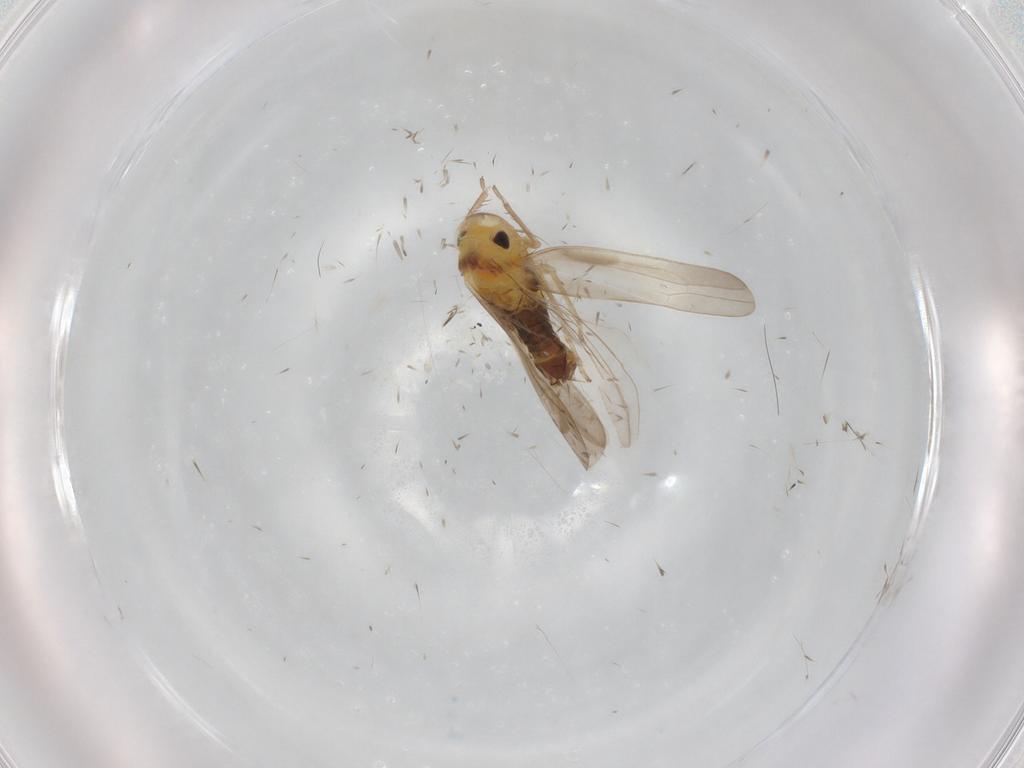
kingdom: Animalia
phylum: Arthropoda
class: Insecta
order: Hemiptera
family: Cicadellidae
